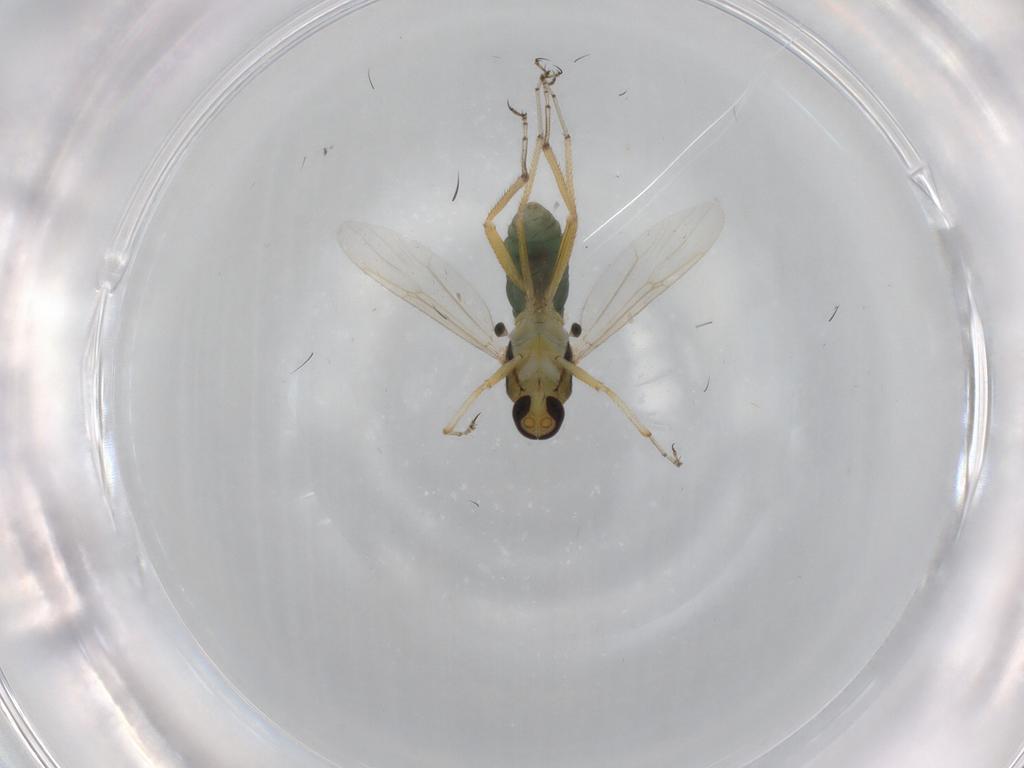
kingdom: Animalia
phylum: Arthropoda
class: Insecta
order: Diptera
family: Ceratopogonidae
